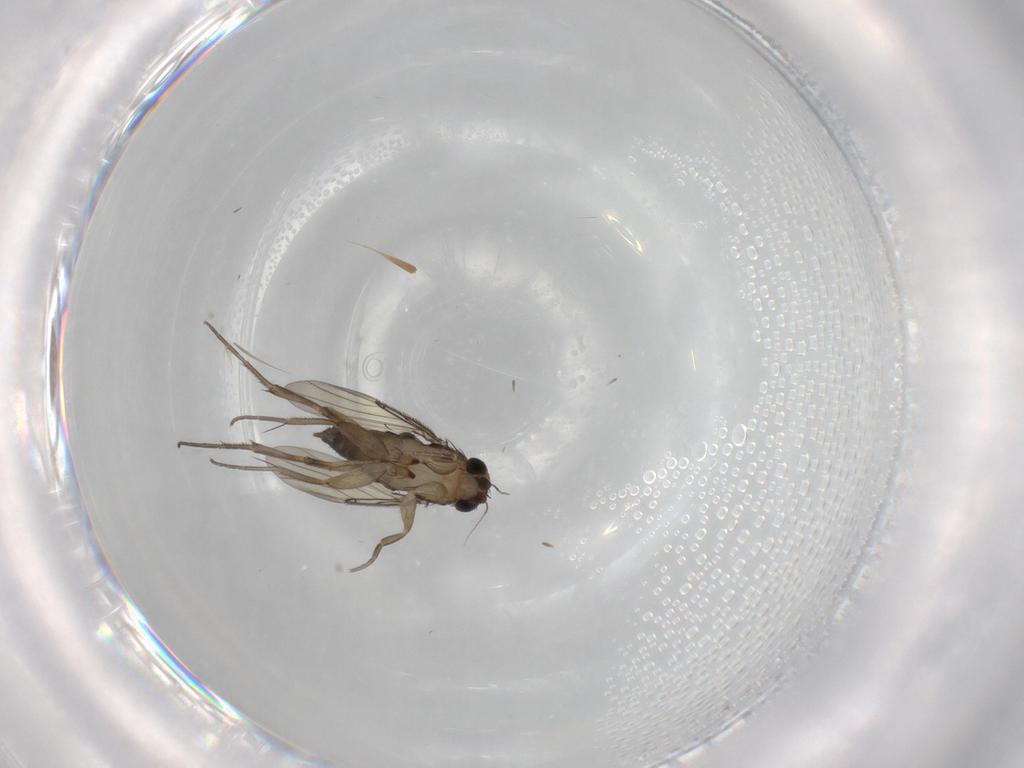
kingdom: Animalia
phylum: Arthropoda
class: Insecta
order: Diptera
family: Phoridae
